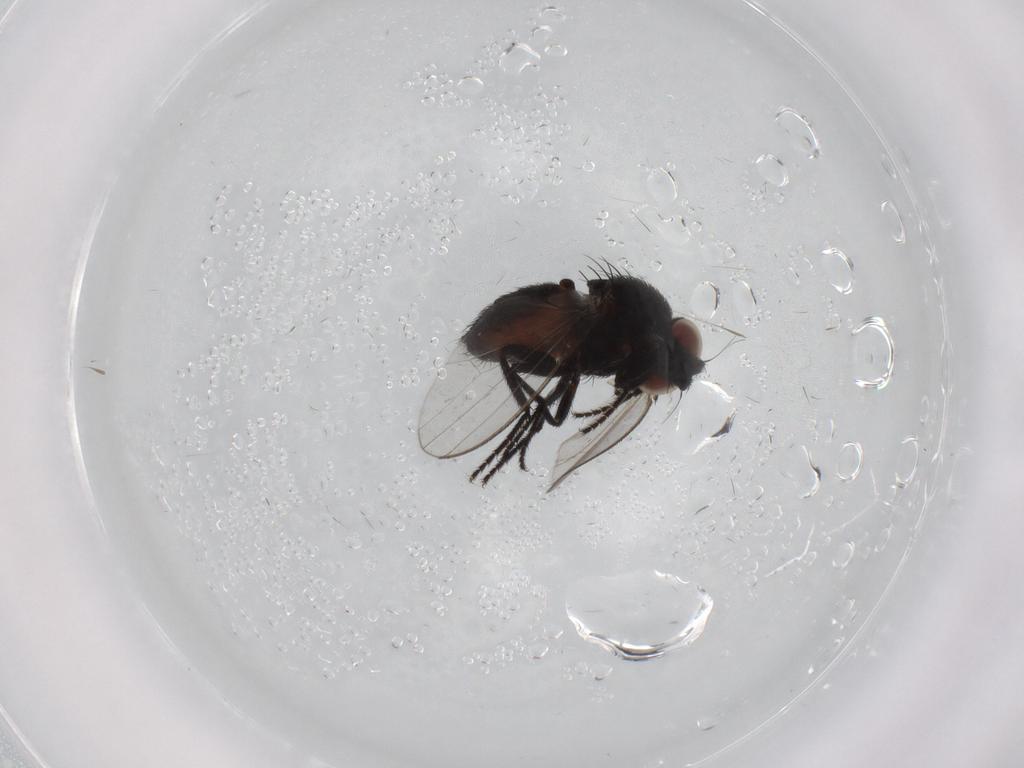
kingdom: Animalia
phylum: Arthropoda
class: Insecta
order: Diptera
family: Milichiidae
